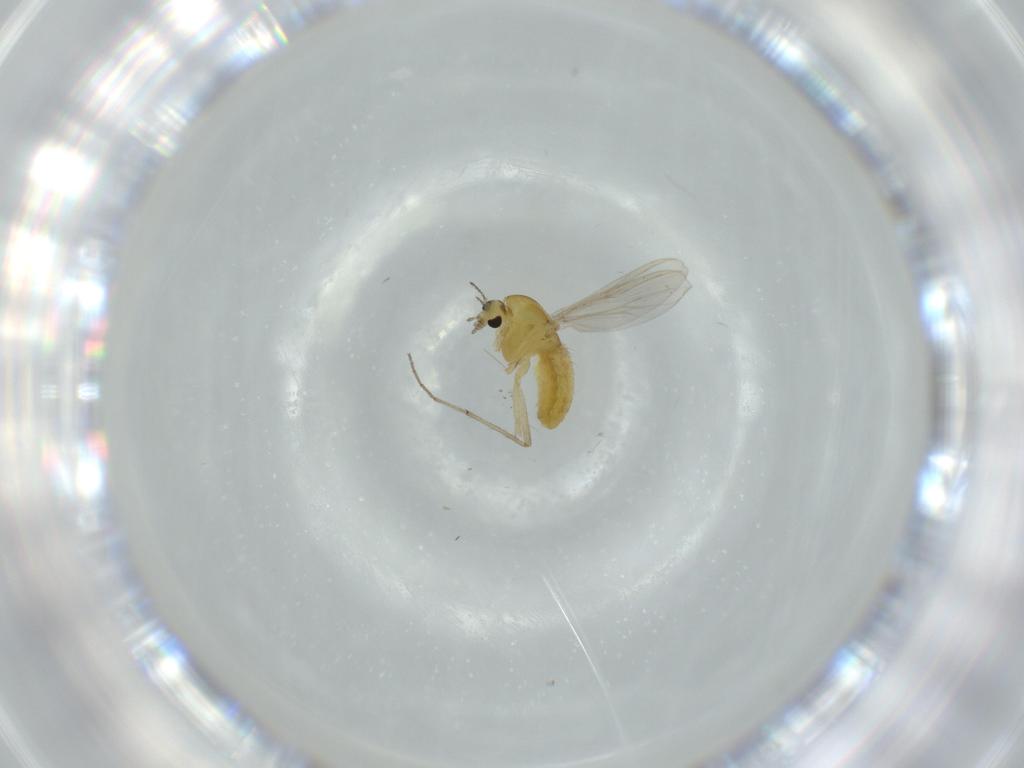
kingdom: Animalia
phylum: Arthropoda
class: Insecta
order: Diptera
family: Chironomidae
